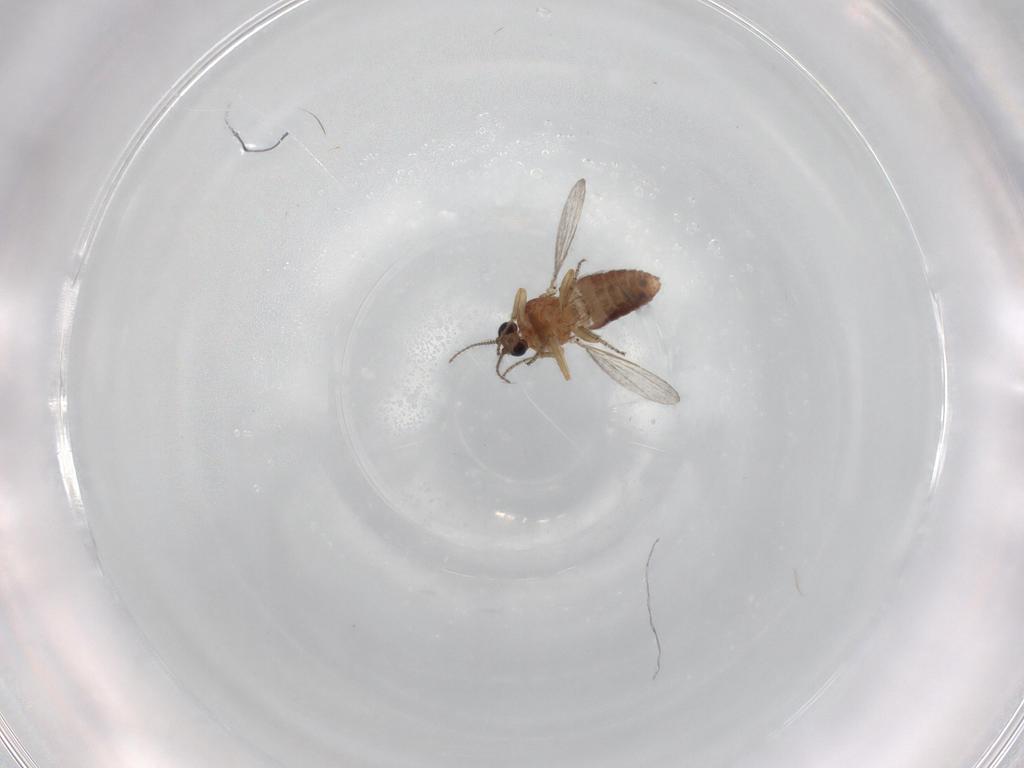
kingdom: Animalia
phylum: Arthropoda
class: Insecta
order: Diptera
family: Ceratopogonidae
